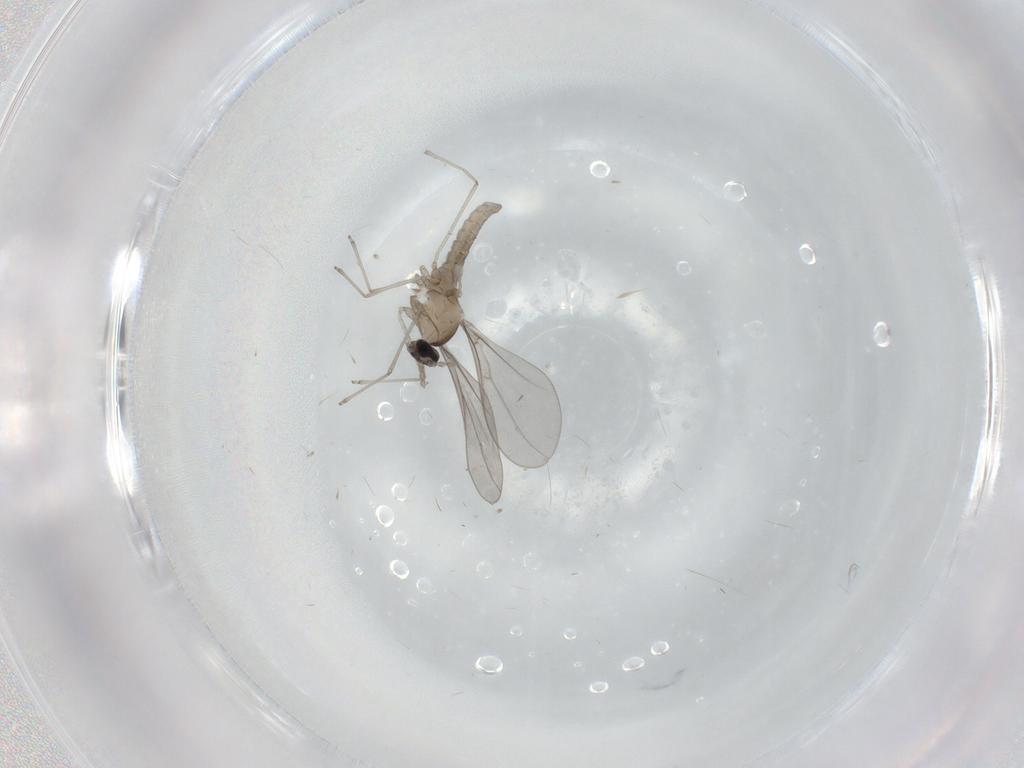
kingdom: Animalia
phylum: Arthropoda
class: Insecta
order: Diptera
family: Cecidomyiidae
